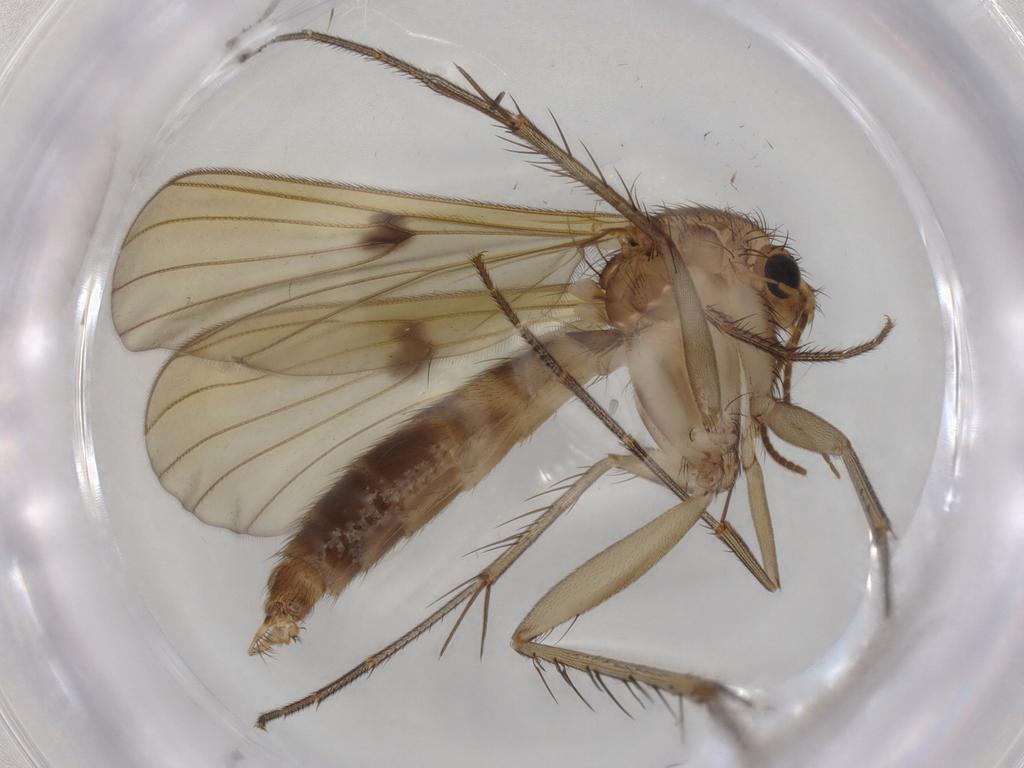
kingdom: Animalia
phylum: Arthropoda
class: Insecta
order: Diptera
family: Mycetophilidae
